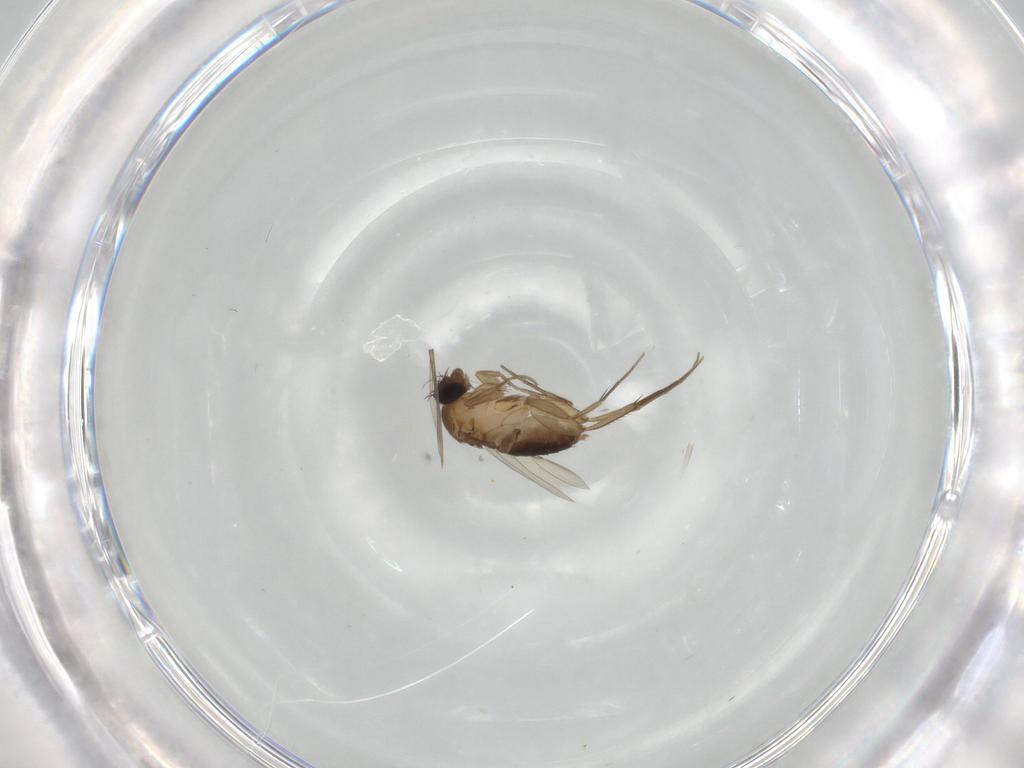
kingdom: Animalia
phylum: Arthropoda
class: Insecta
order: Diptera
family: Phoridae
